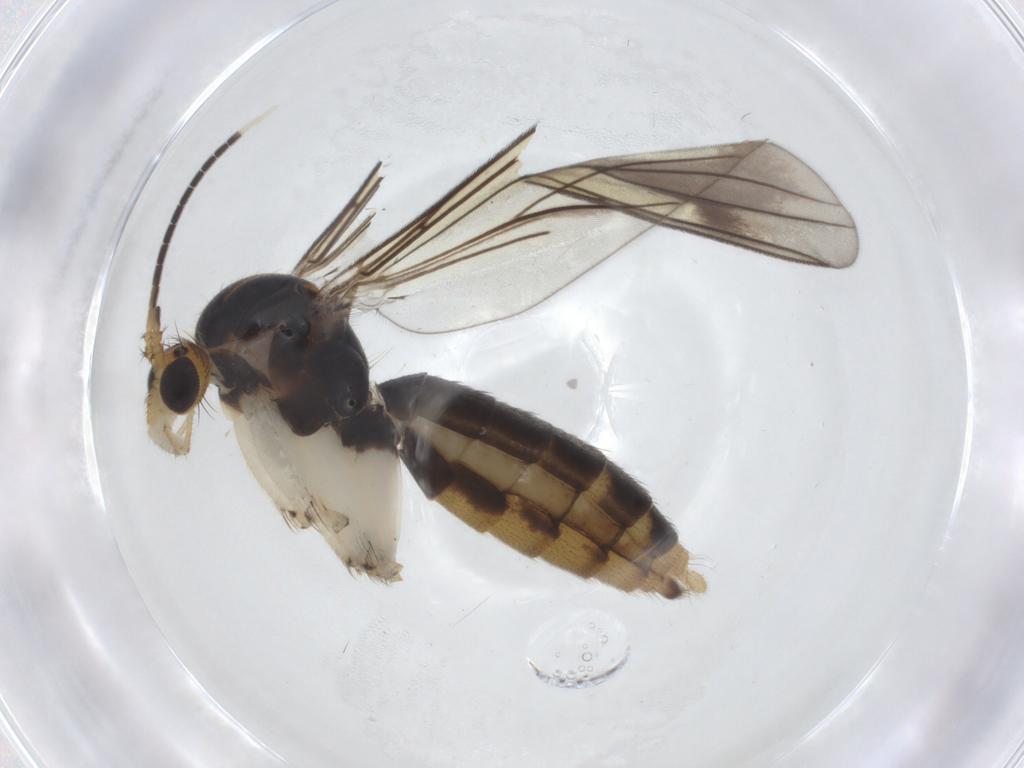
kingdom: Animalia
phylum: Arthropoda
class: Insecta
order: Diptera
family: Mycetophilidae
